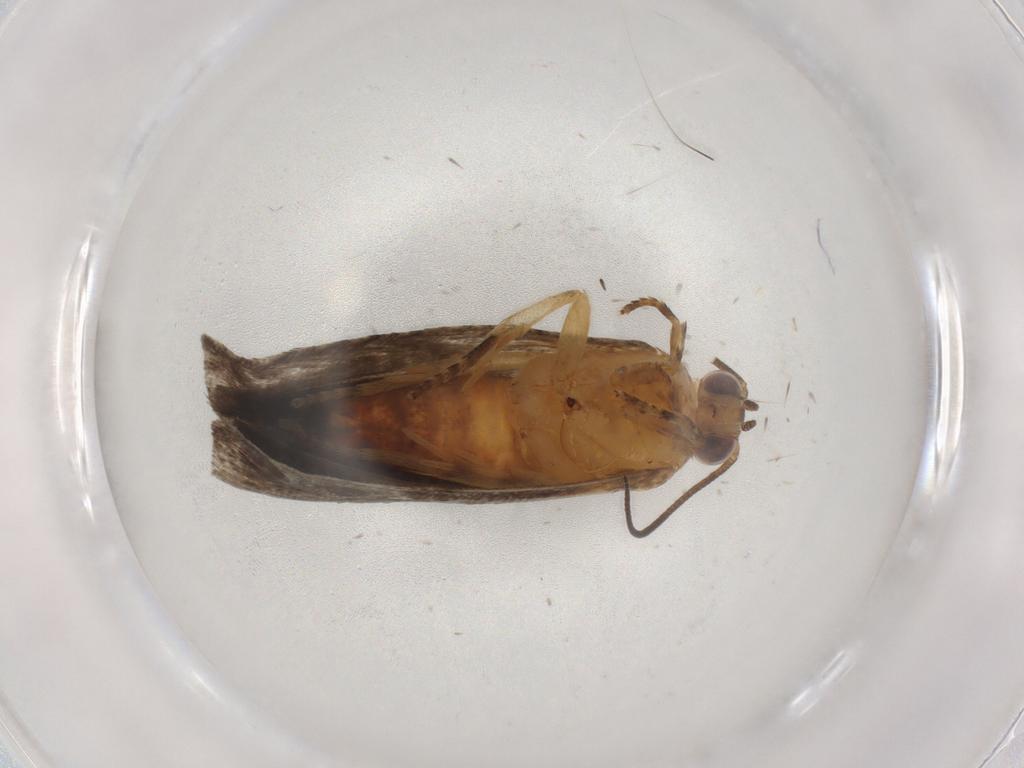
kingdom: Animalia
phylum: Arthropoda
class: Insecta
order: Lepidoptera
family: Tortricidae
